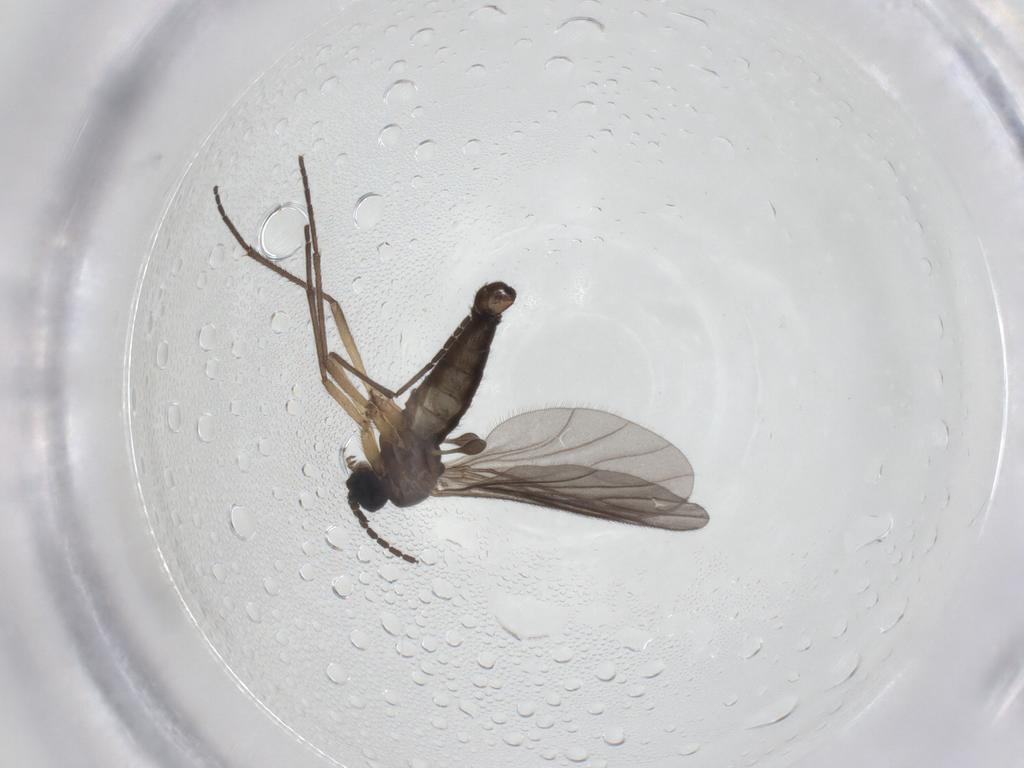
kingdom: Animalia
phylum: Arthropoda
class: Insecta
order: Diptera
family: Sciaridae
